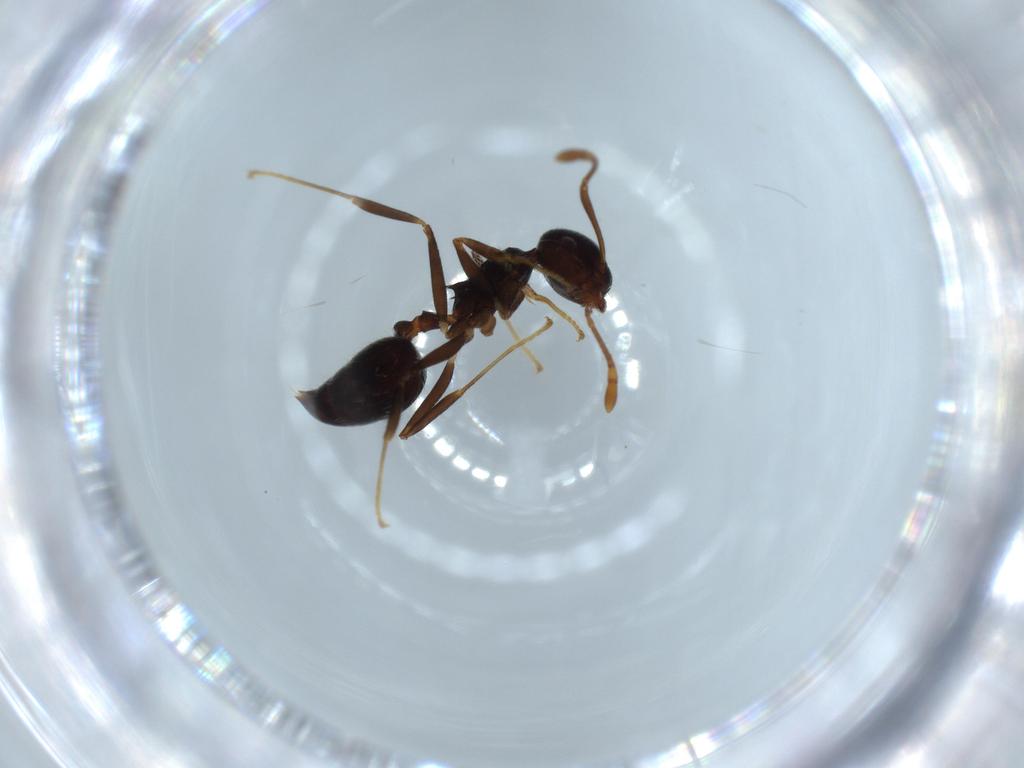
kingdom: Animalia
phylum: Arthropoda
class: Insecta
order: Hymenoptera
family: Formicidae
